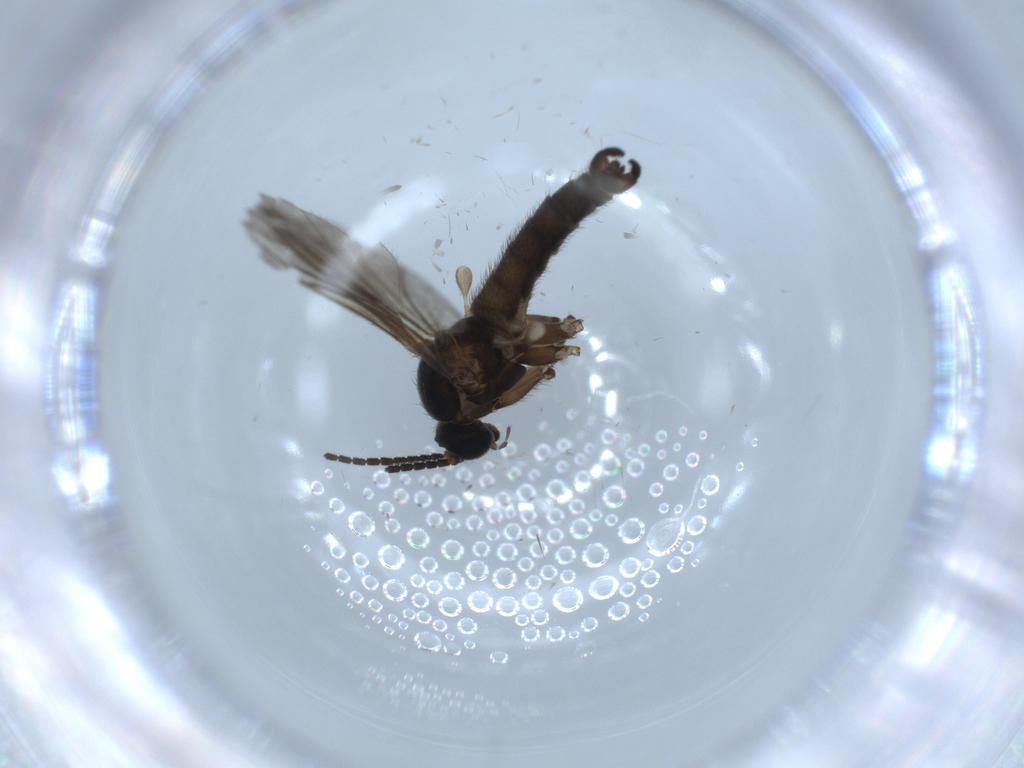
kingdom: Animalia
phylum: Arthropoda
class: Insecta
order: Diptera
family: Sciaridae
